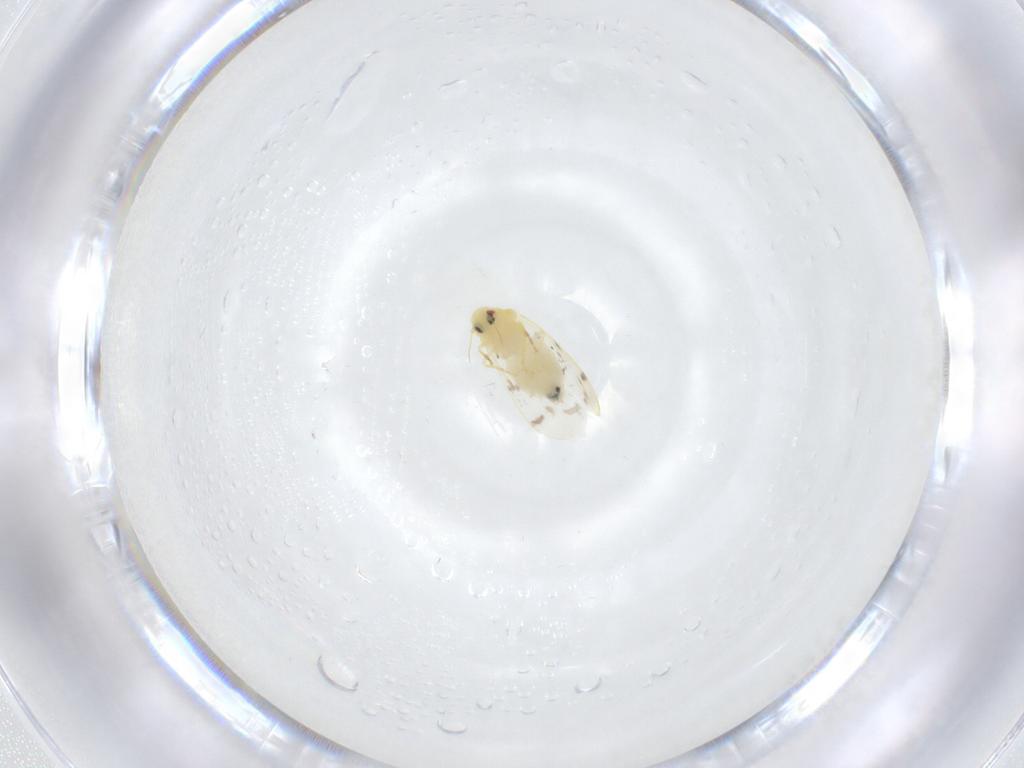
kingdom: Animalia
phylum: Arthropoda
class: Insecta
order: Hemiptera
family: Aleyrodidae
